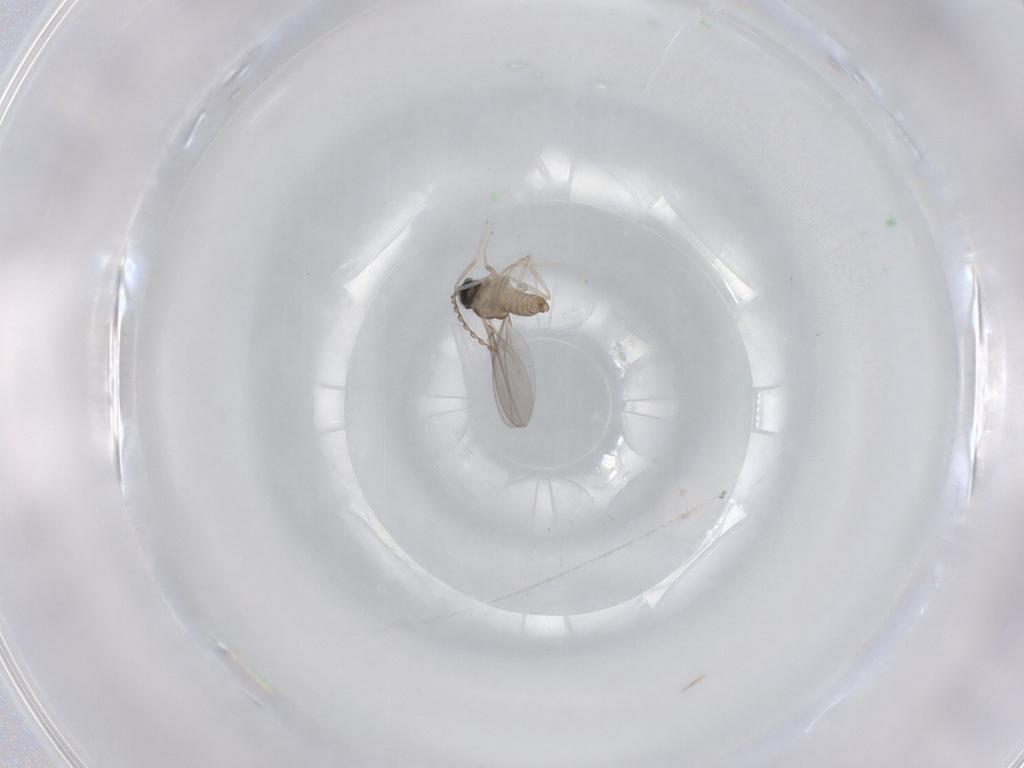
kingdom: Animalia
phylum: Arthropoda
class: Insecta
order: Diptera
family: Cecidomyiidae
